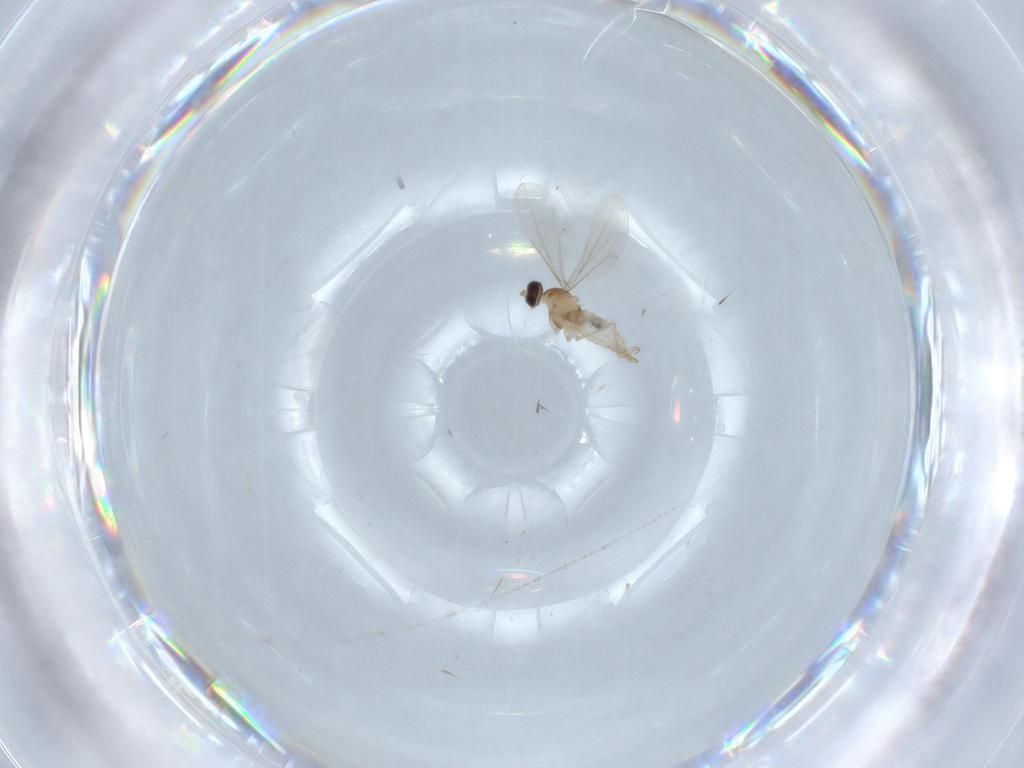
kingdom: Animalia
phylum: Arthropoda
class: Insecta
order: Diptera
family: Cecidomyiidae
